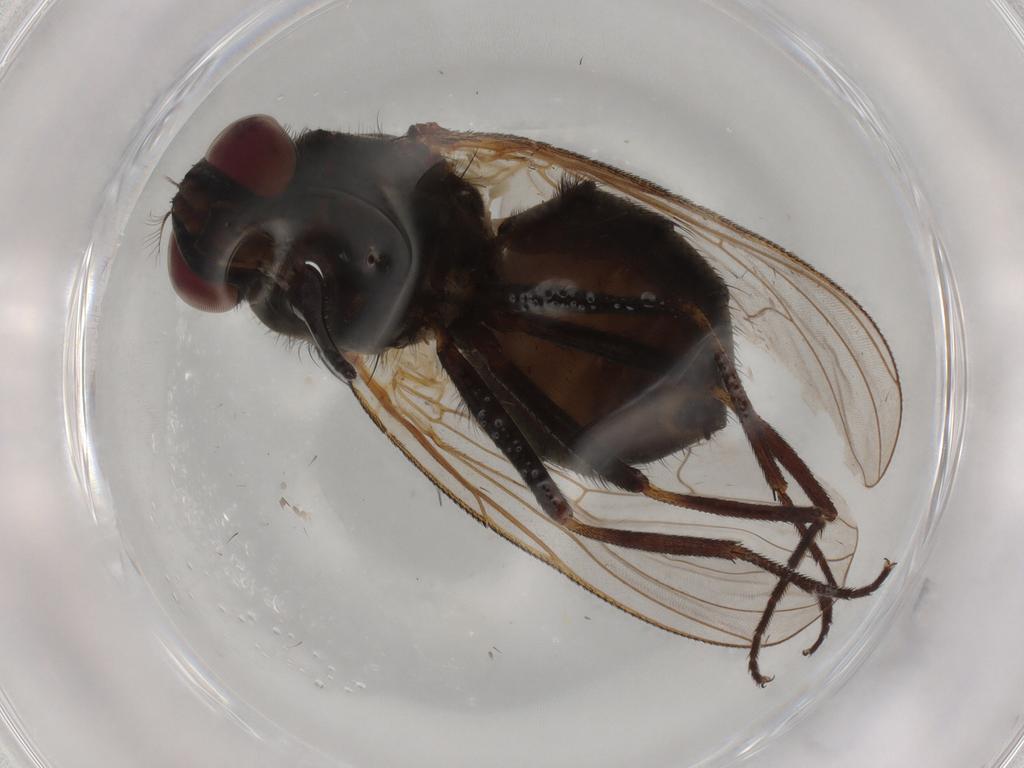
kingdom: Animalia
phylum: Arthropoda
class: Insecta
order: Diptera
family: Muscidae
